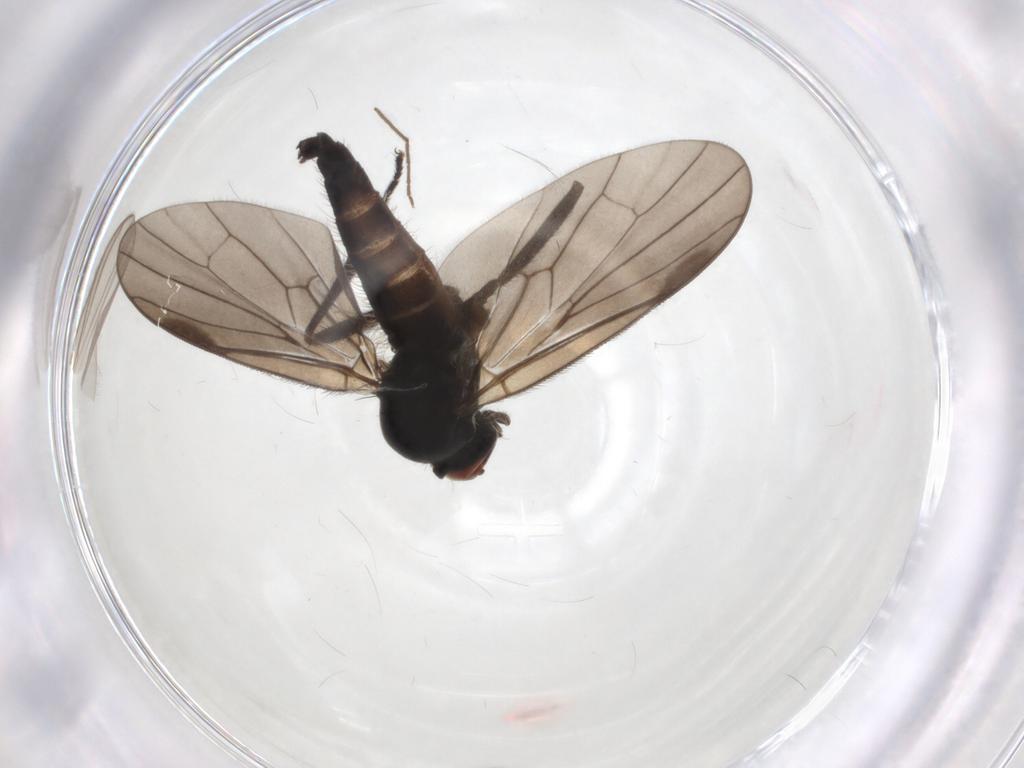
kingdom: Animalia
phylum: Arthropoda
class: Insecta
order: Diptera
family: Hybotidae
